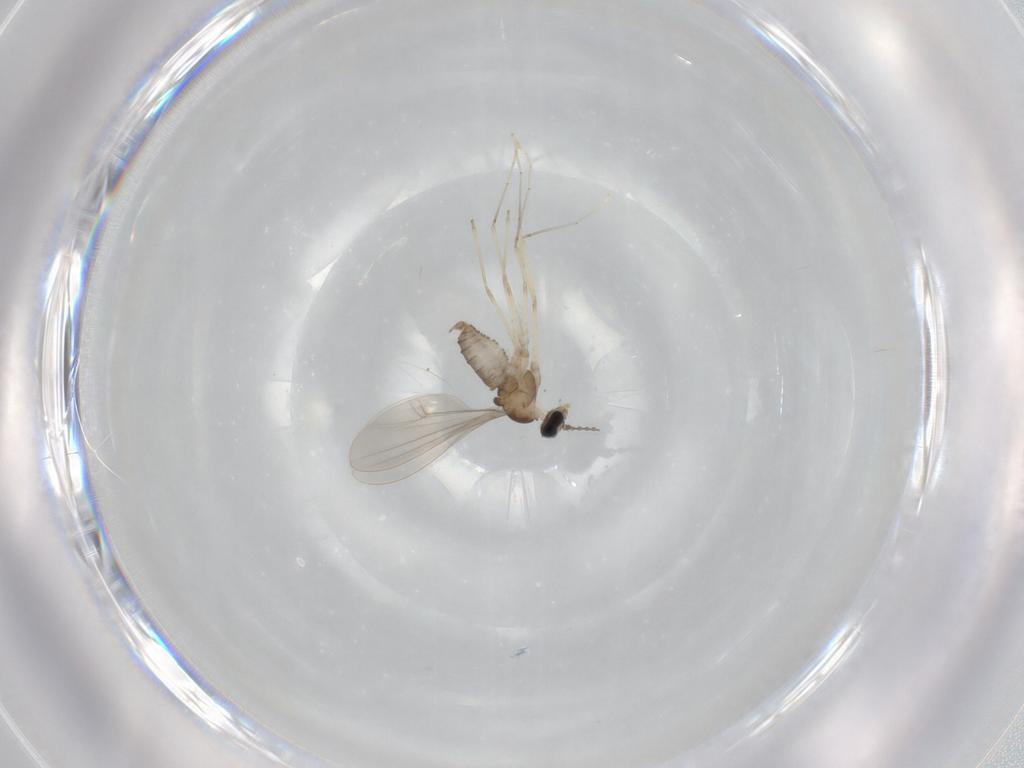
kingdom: Animalia
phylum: Arthropoda
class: Insecta
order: Diptera
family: Cecidomyiidae
